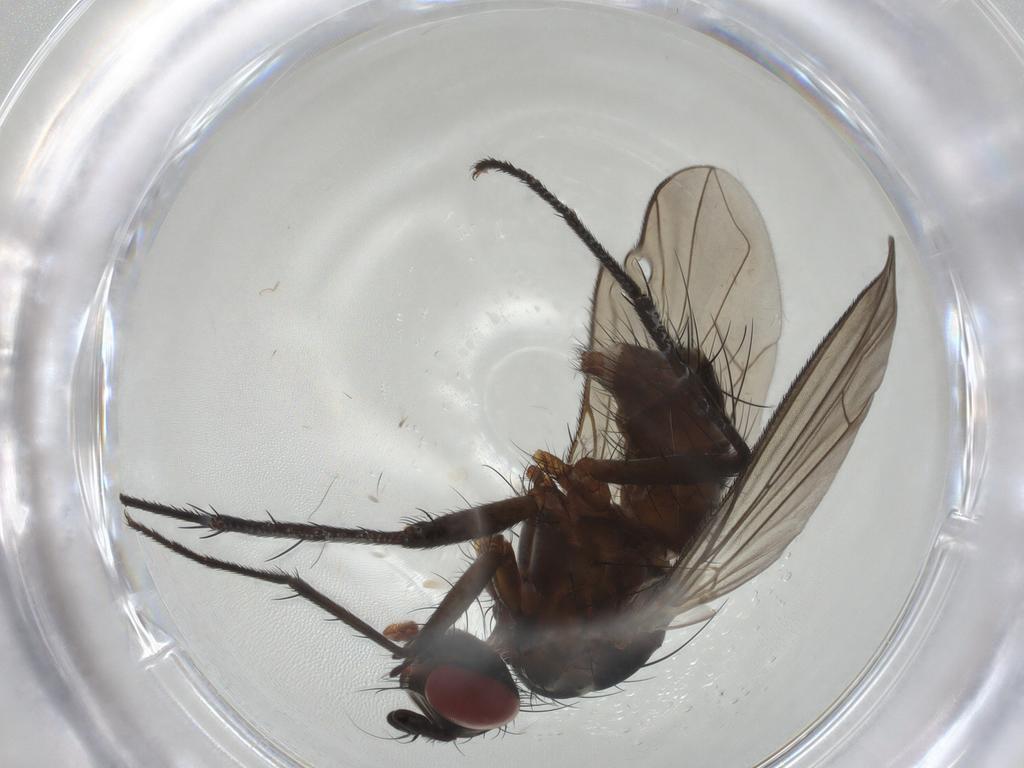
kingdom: Animalia
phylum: Arthropoda
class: Insecta
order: Diptera
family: Muscidae
